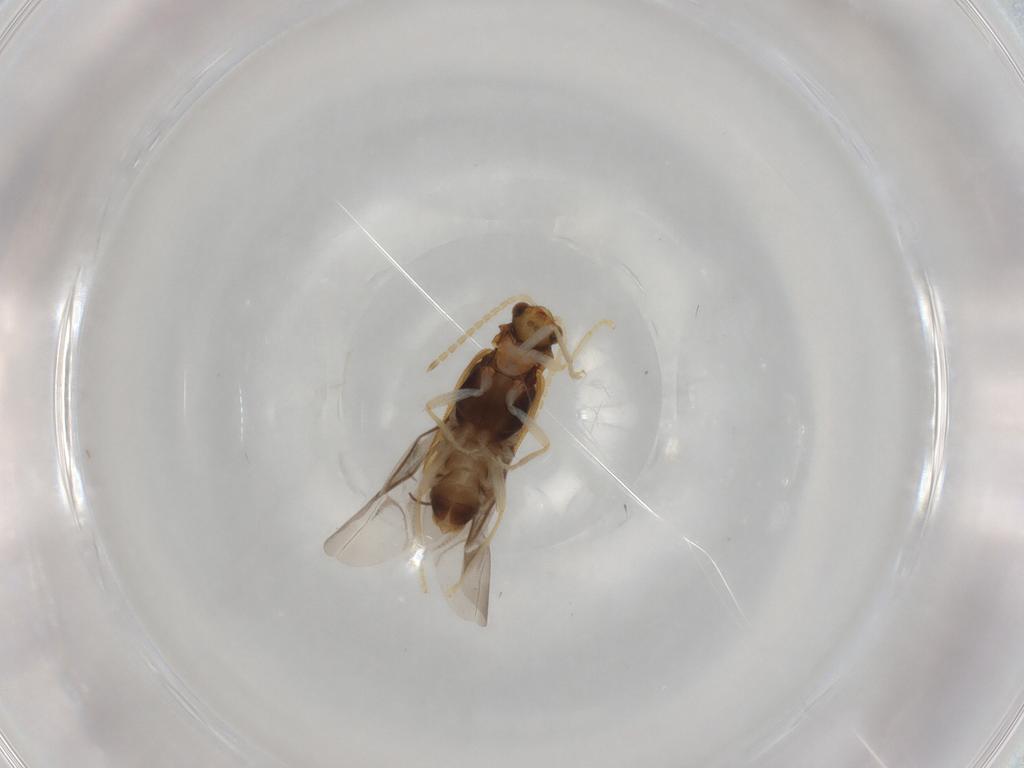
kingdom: Animalia
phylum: Arthropoda
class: Insecta
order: Coleoptera
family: Cantharidae
